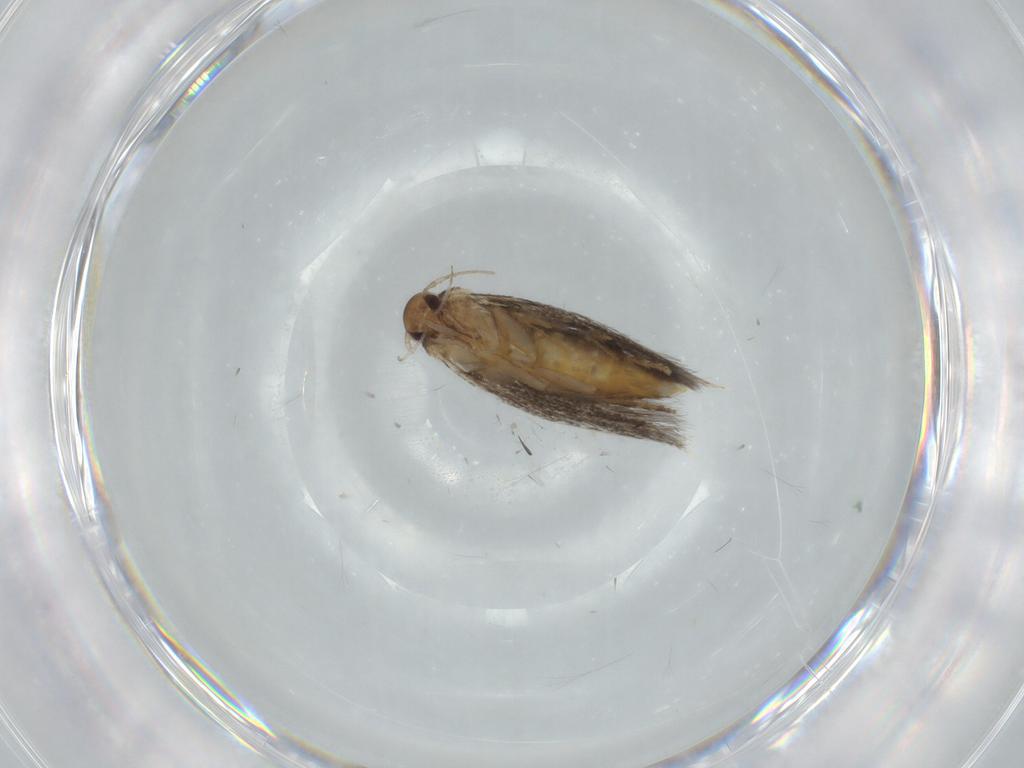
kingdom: Animalia
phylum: Arthropoda
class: Insecta
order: Lepidoptera
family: Elachistidae
